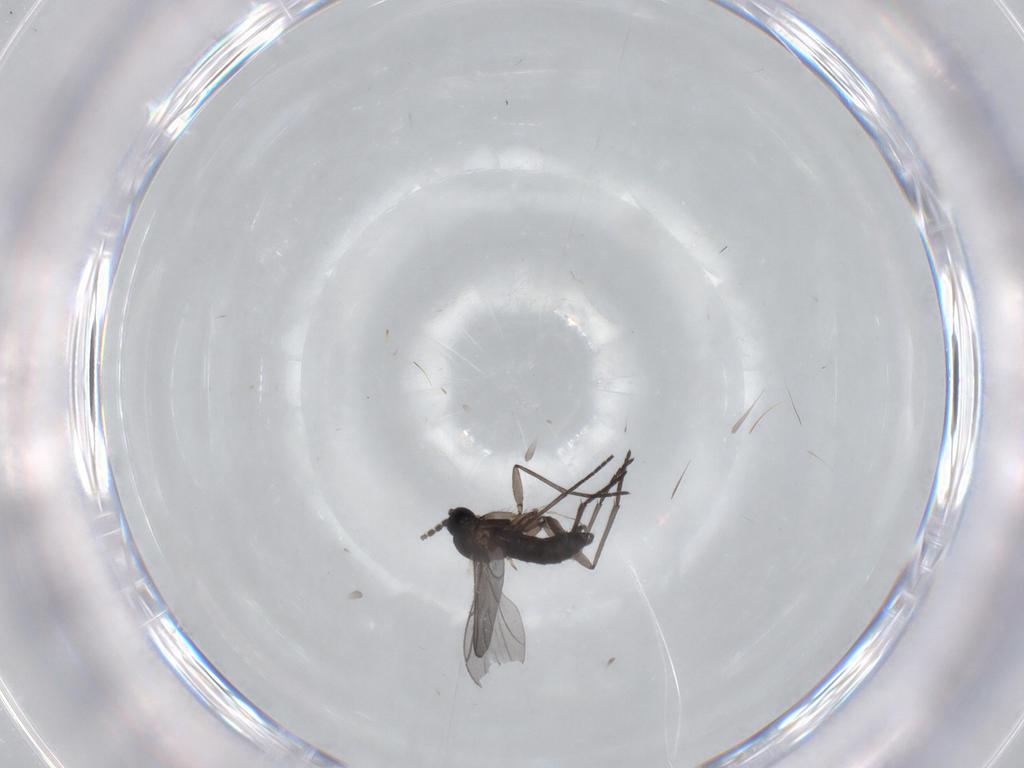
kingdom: Animalia
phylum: Arthropoda
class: Insecta
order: Diptera
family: Sciaridae
